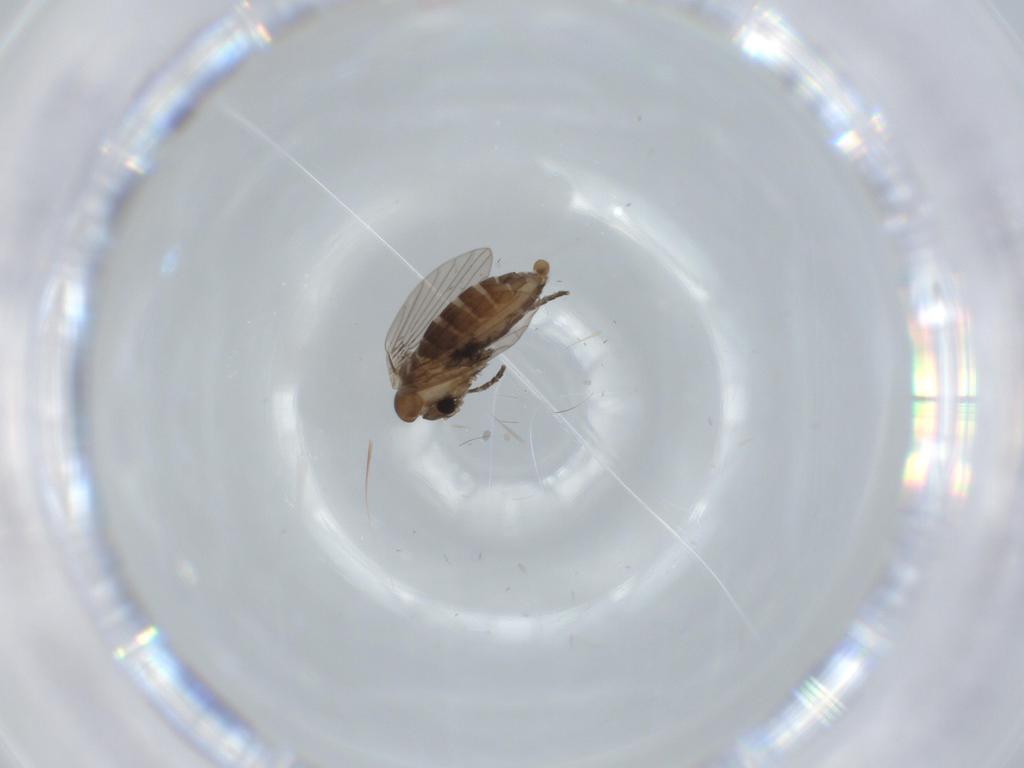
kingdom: Animalia
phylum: Arthropoda
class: Insecta
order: Diptera
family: Psychodidae
